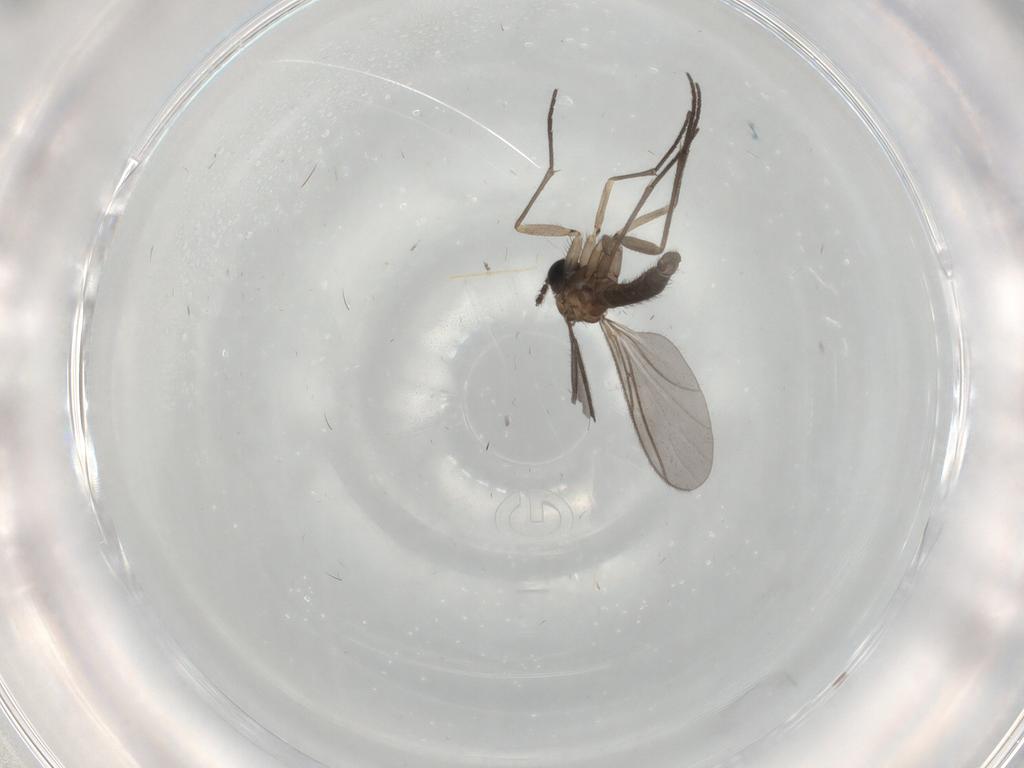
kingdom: Animalia
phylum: Arthropoda
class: Insecta
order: Diptera
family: Sciaridae
